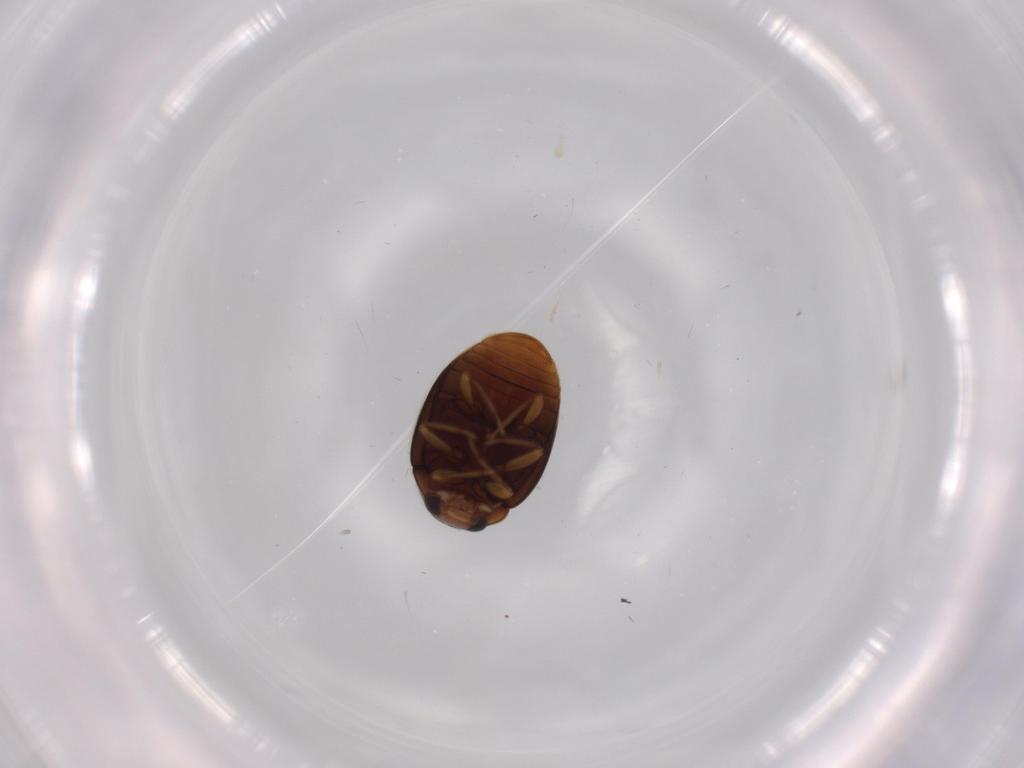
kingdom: Animalia
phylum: Arthropoda
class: Insecta
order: Coleoptera
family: Coccinellidae
